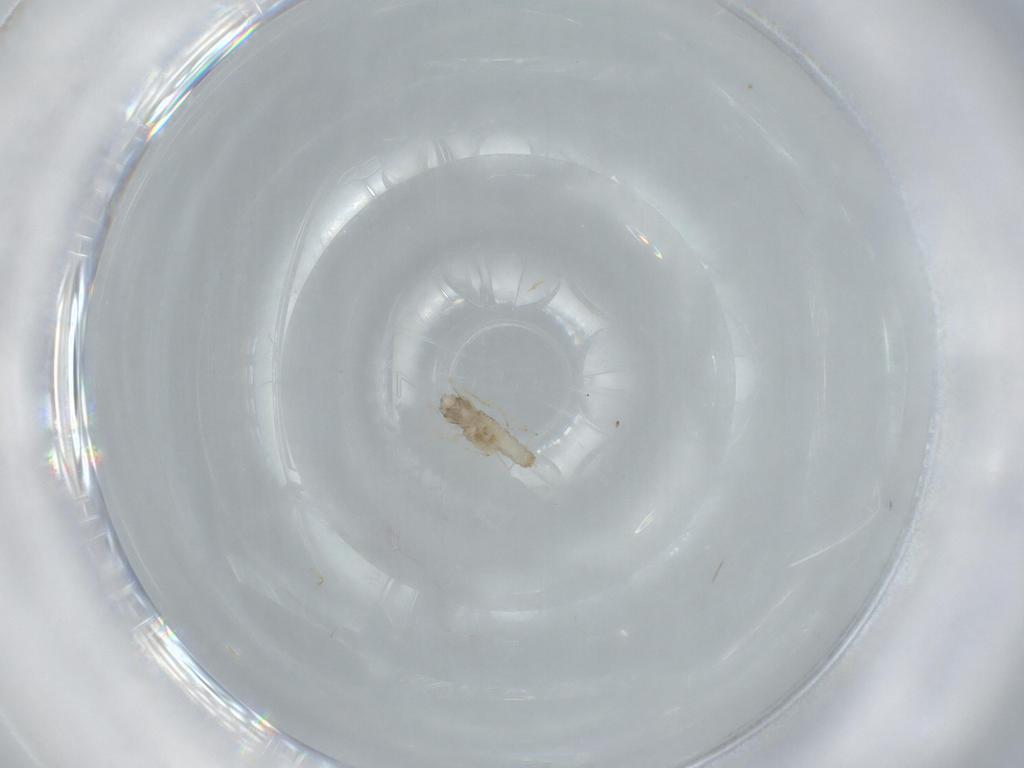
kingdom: Animalia
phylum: Arthropoda
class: Insecta
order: Diptera
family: Cecidomyiidae
